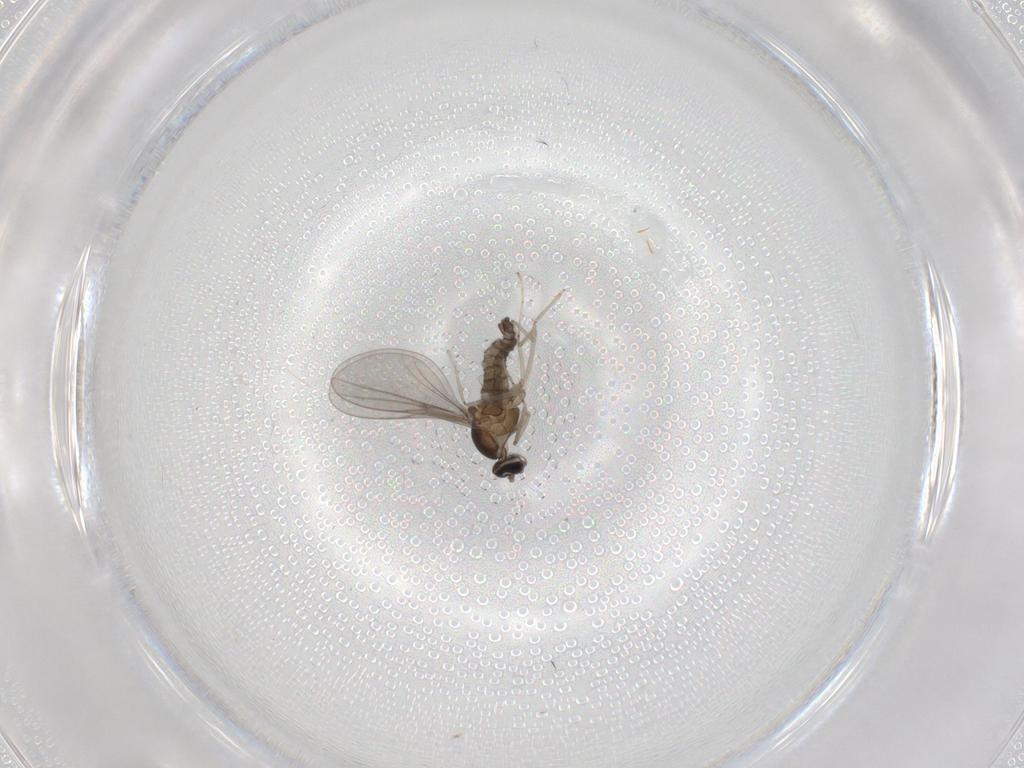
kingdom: Animalia
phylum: Arthropoda
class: Insecta
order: Diptera
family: Cecidomyiidae
